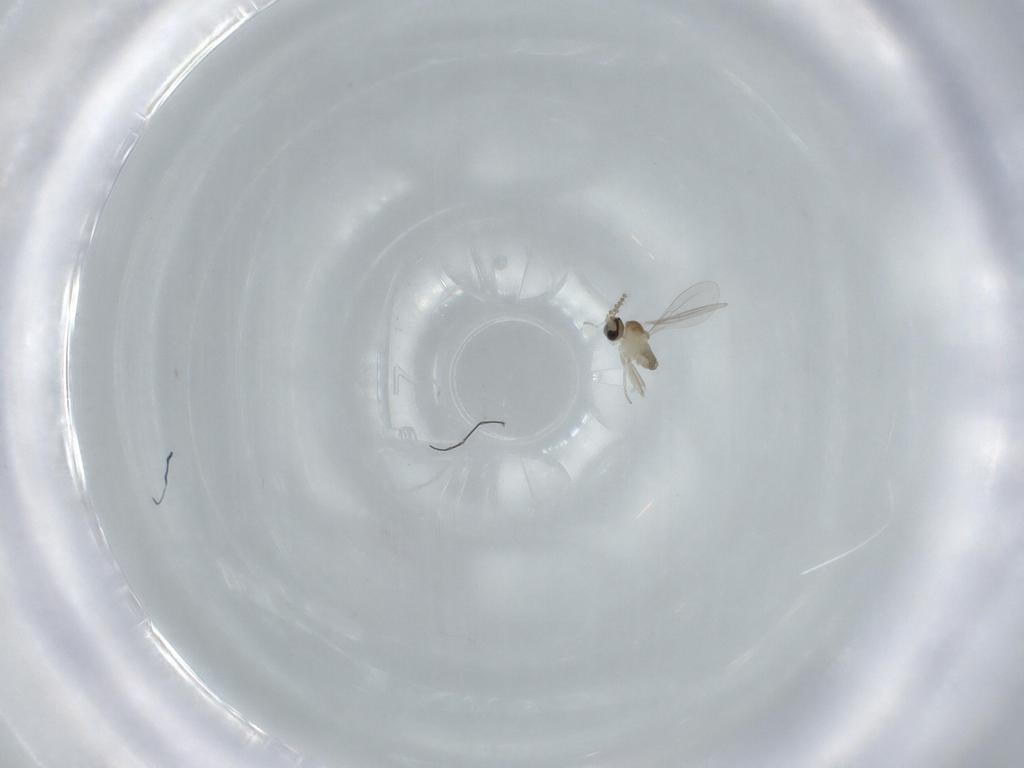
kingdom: Animalia
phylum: Arthropoda
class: Insecta
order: Diptera
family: Cecidomyiidae
